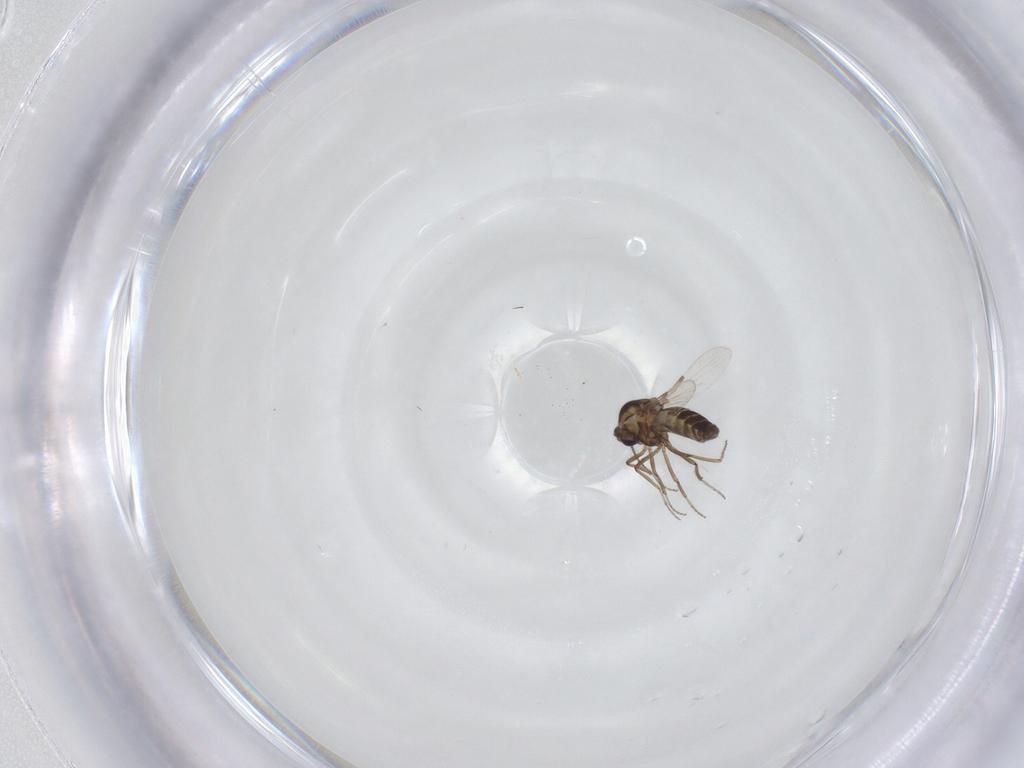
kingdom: Animalia
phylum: Arthropoda
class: Insecta
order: Diptera
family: Ceratopogonidae
